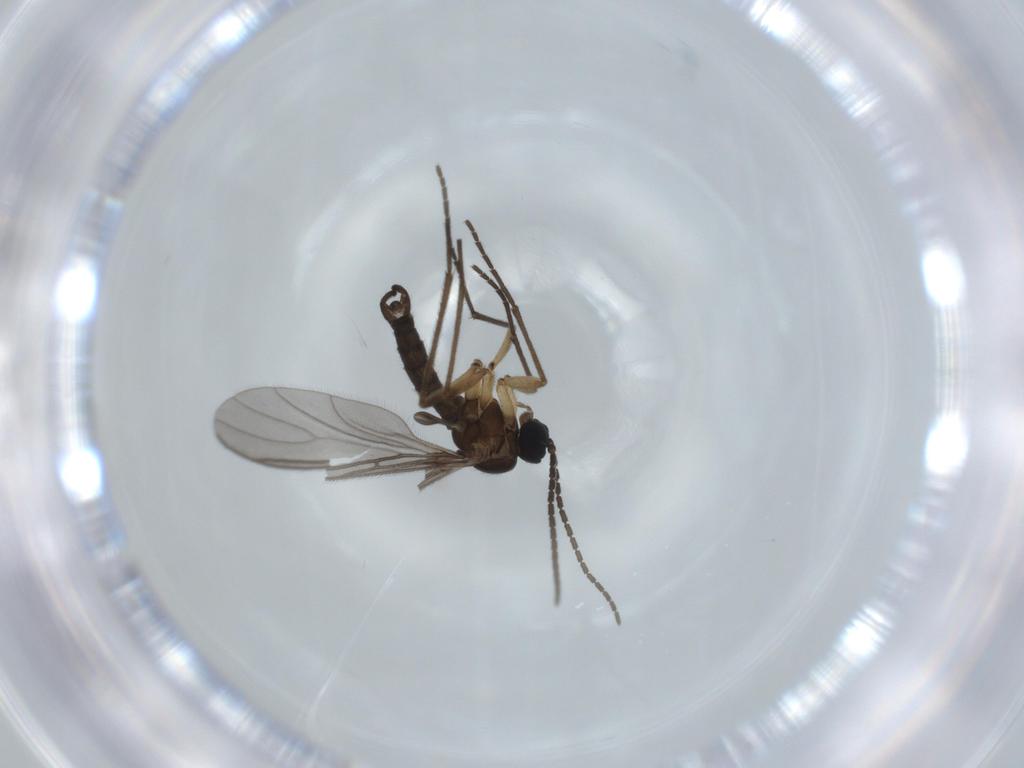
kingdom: Animalia
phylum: Arthropoda
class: Insecta
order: Diptera
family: Sciaridae
